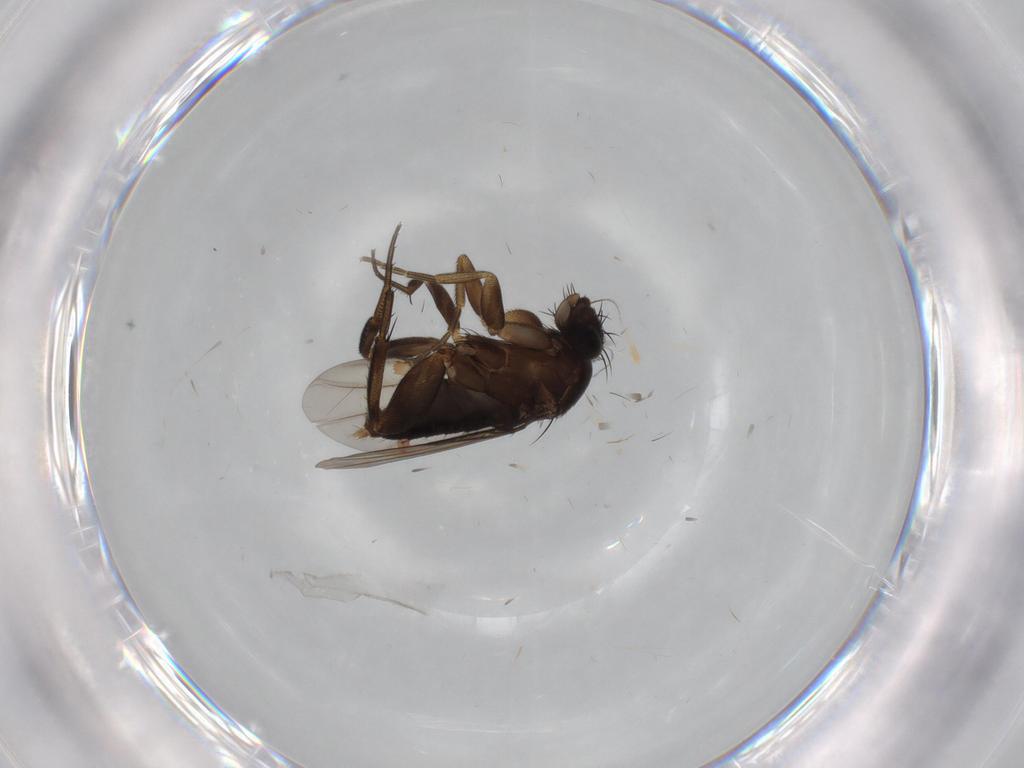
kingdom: Animalia
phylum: Arthropoda
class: Insecta
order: Diptera
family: Phoridae
